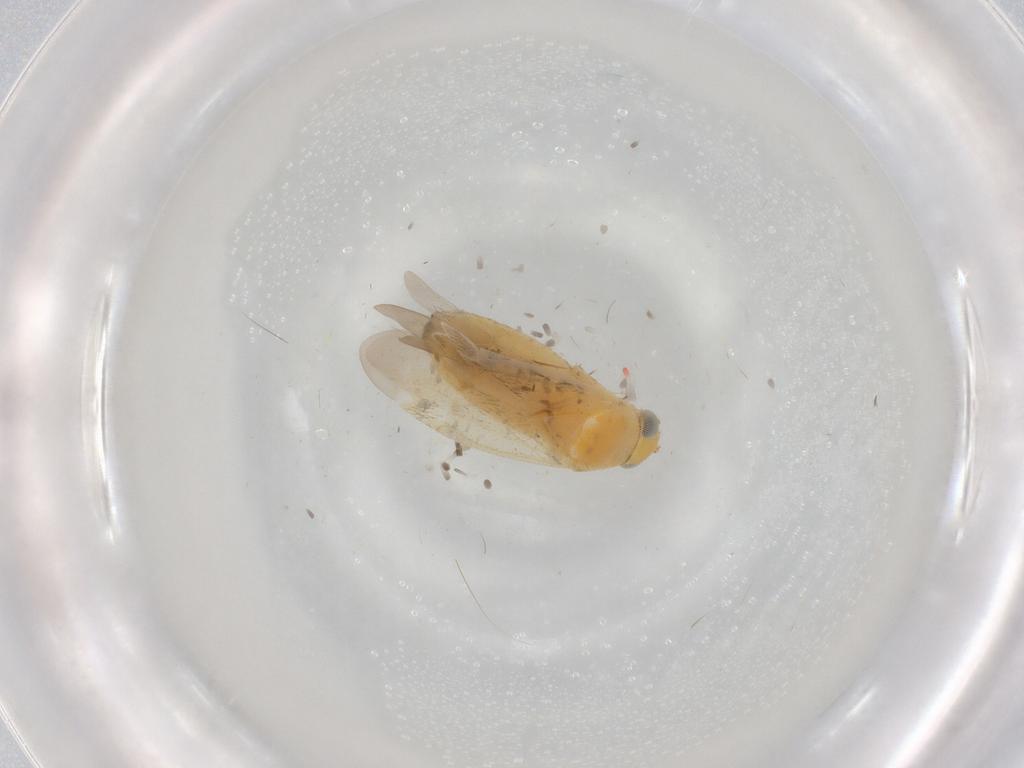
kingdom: Animalia
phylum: Arthropoda
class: Insecta
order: Hemiptera
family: Miridae
